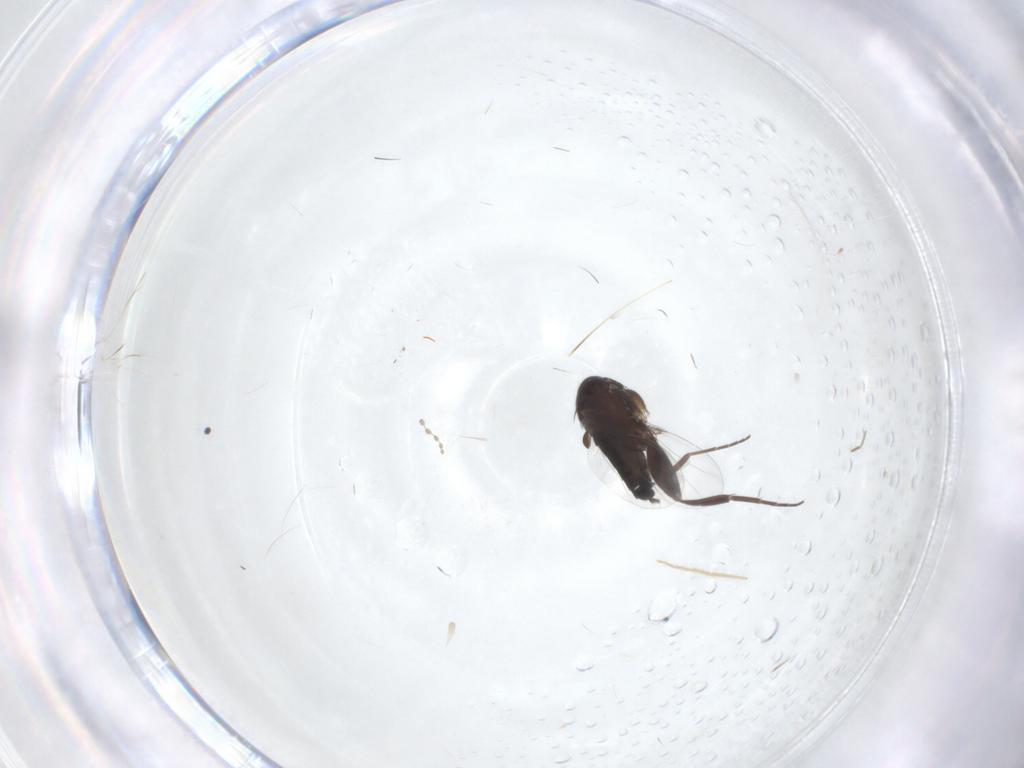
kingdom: Animalia
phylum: Arthropoda
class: Insecta
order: Diptera
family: Phoridae
